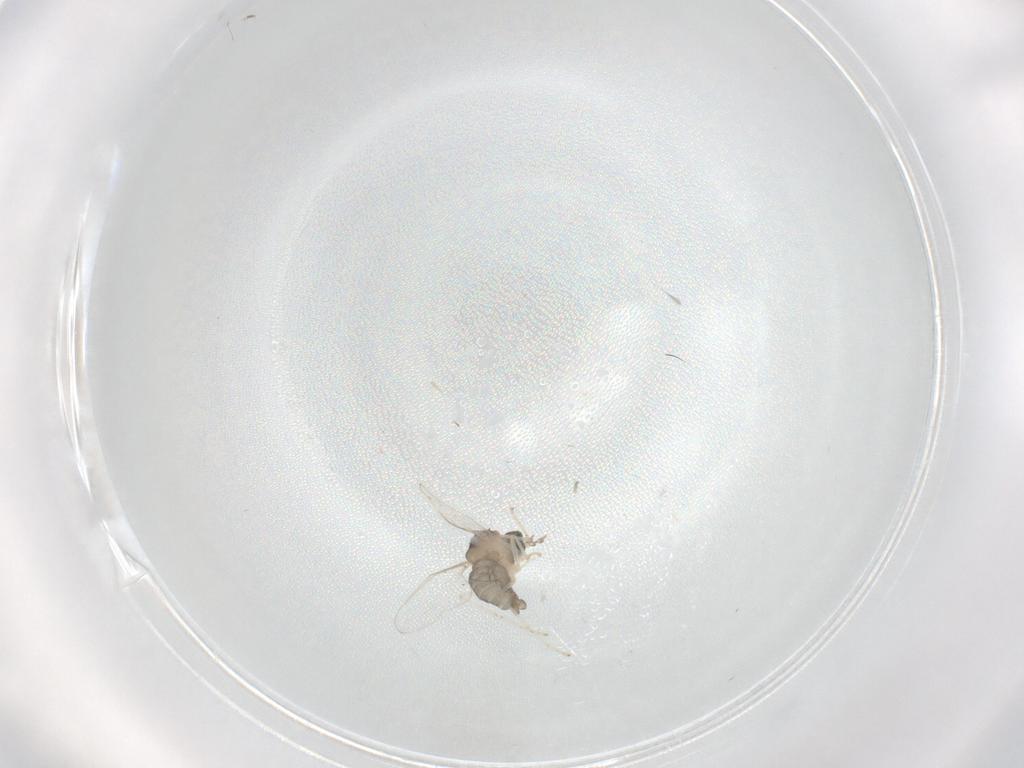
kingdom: Animalia
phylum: Arthropoda
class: Insecta
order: Diptera
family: Cecidomyiidae
